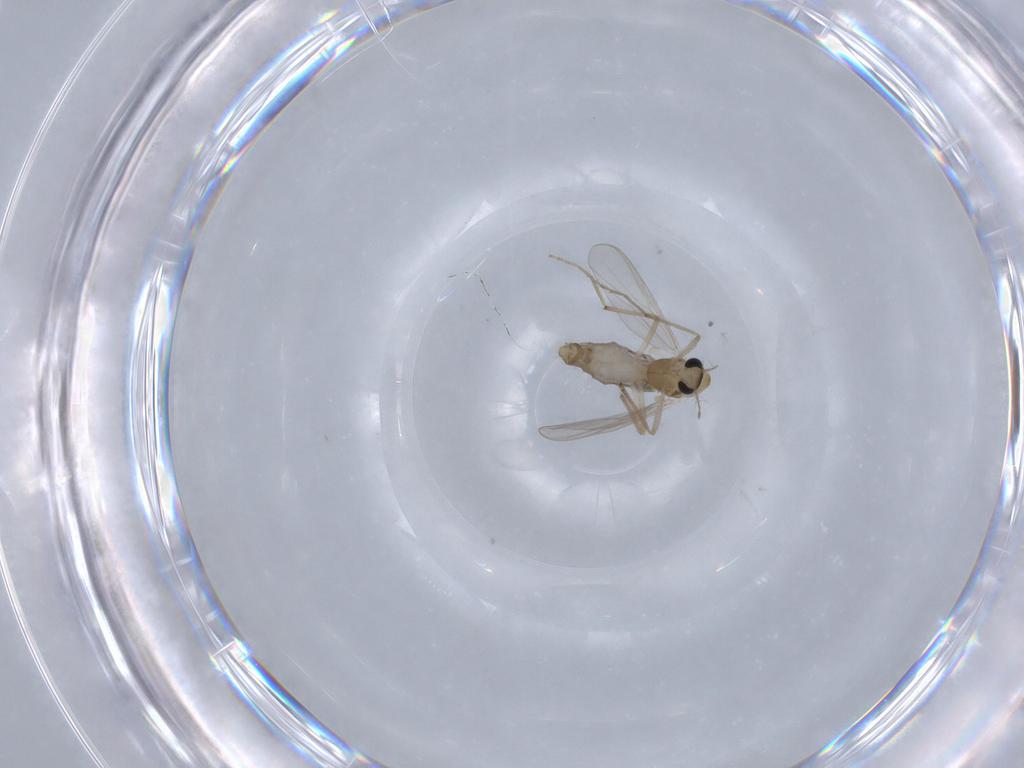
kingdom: Animalia
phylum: Arthropoda
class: Insecta
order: Diptera
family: Chironomidae
